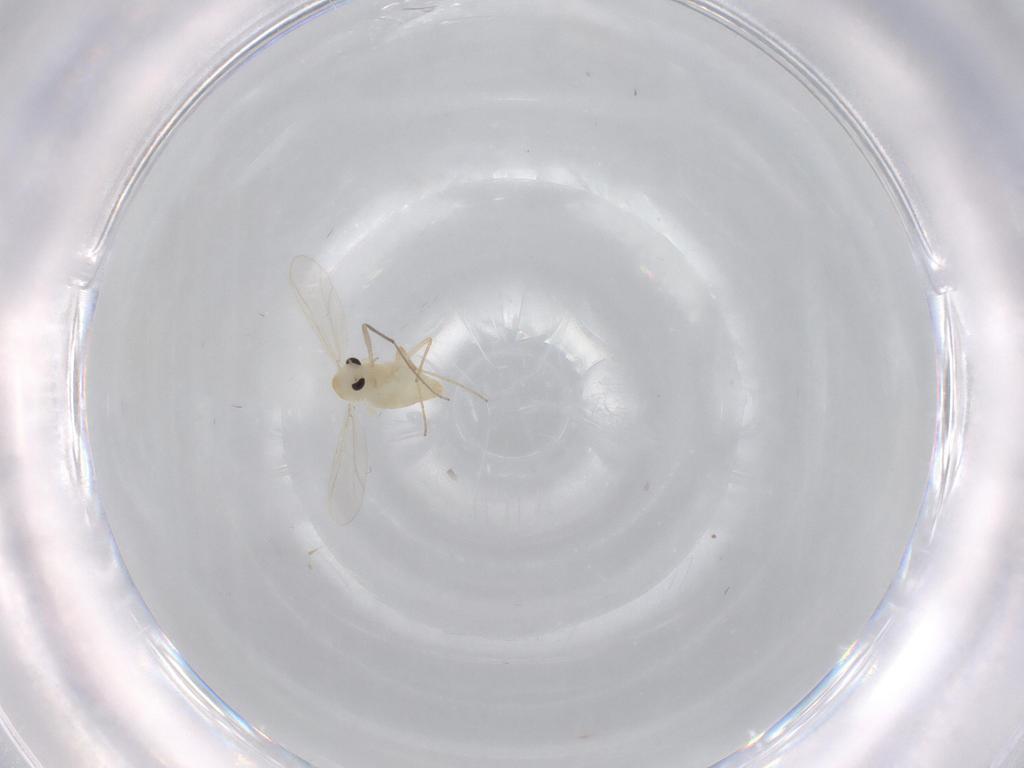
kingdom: Animalia
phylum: Arthropoda
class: Insecta
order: Diptera
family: Chironomidae
